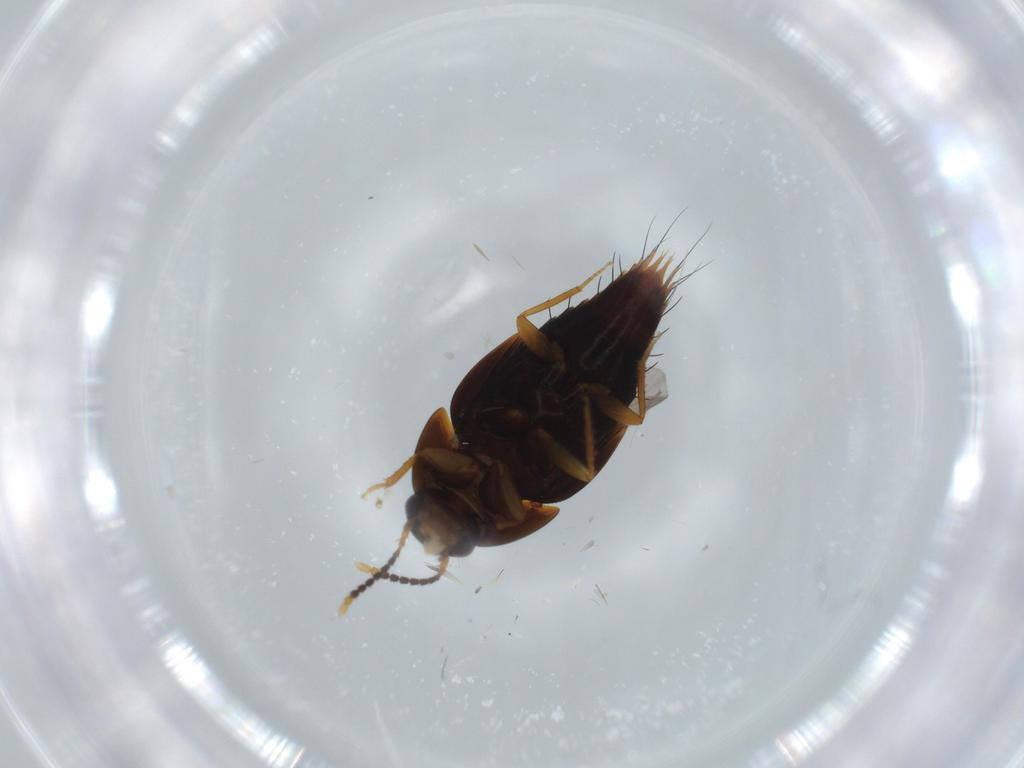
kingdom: Animalia
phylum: Arthropoda
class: Insecta
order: Coleoptera
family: Staphylinidae
